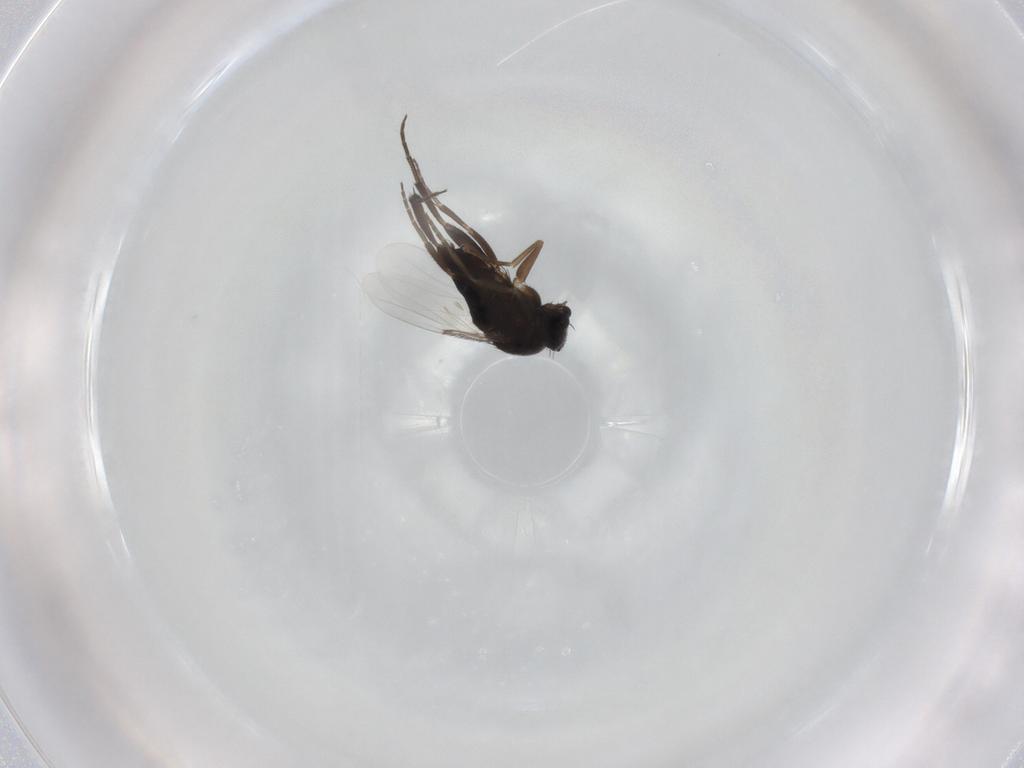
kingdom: Animalia
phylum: Arthropoda
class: Insecta
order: Diptera
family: Phoridae
